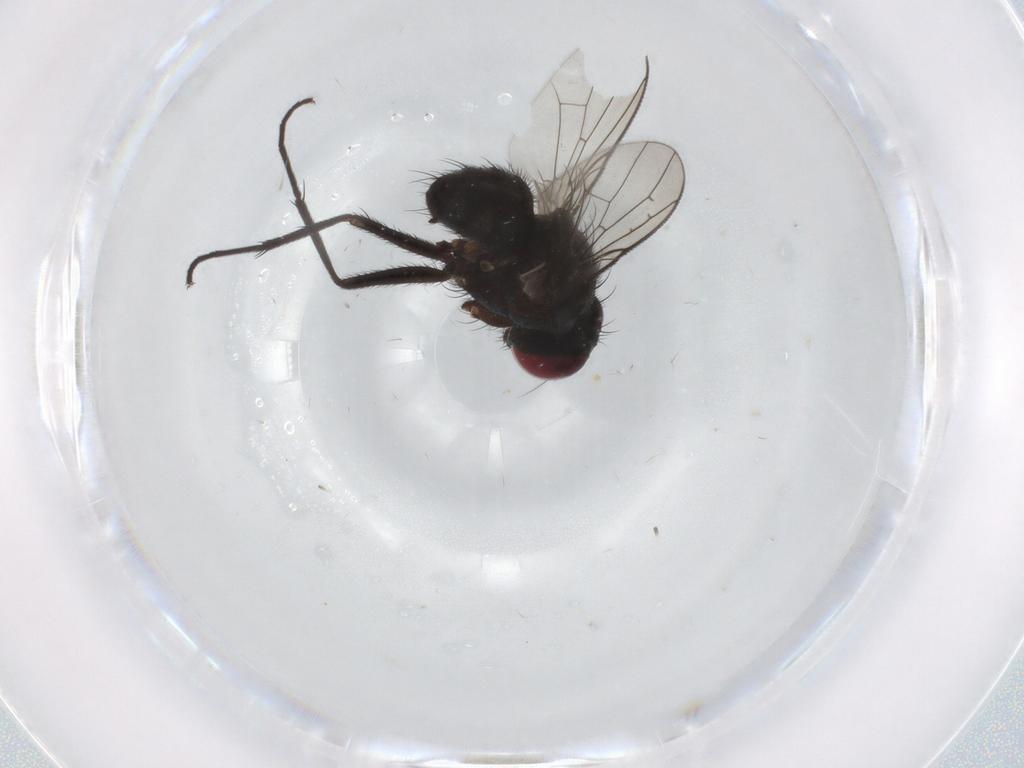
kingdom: Animalia
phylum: Arthropoda
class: Insecta
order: Diptera
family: Muscidae
